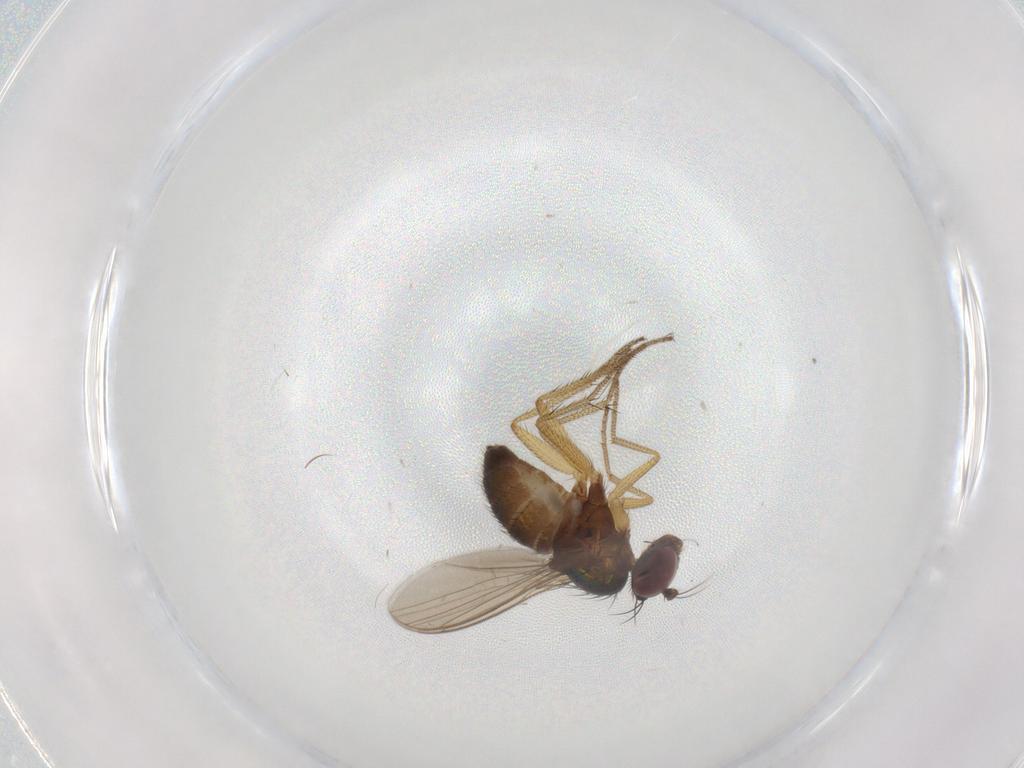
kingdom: Animalia
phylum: Arthropoda
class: Insecta
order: Diptera
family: Dolichopodidae
